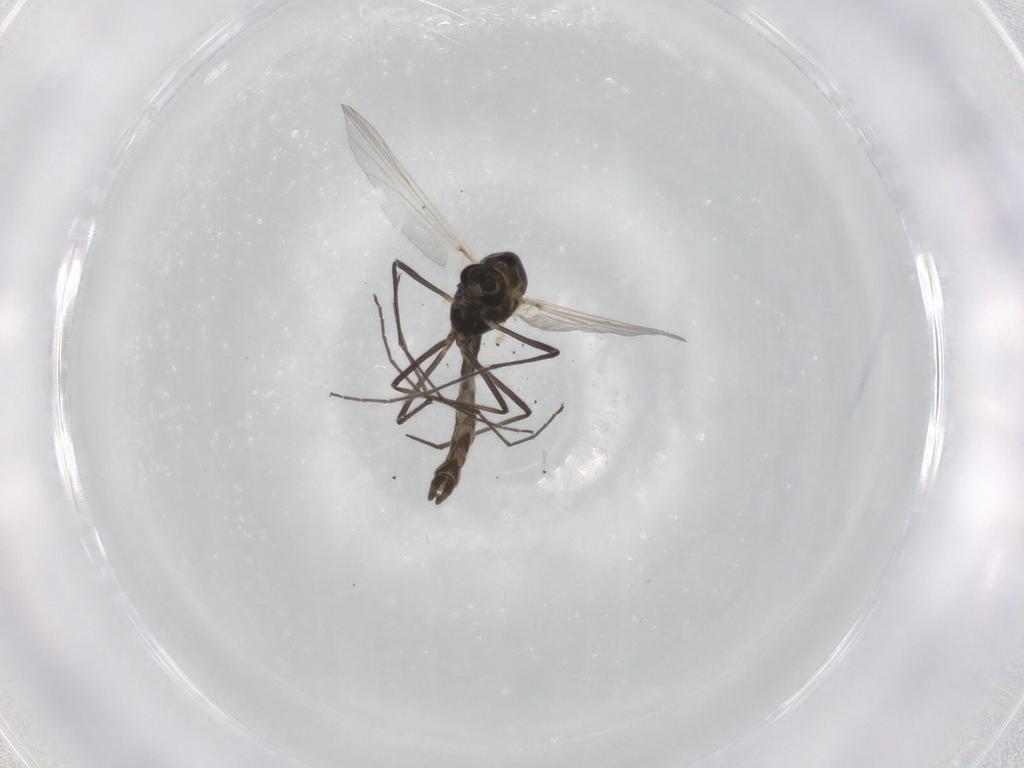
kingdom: Animalia
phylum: Arthropoda
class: Insecta
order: Diptera
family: Chironomidae
